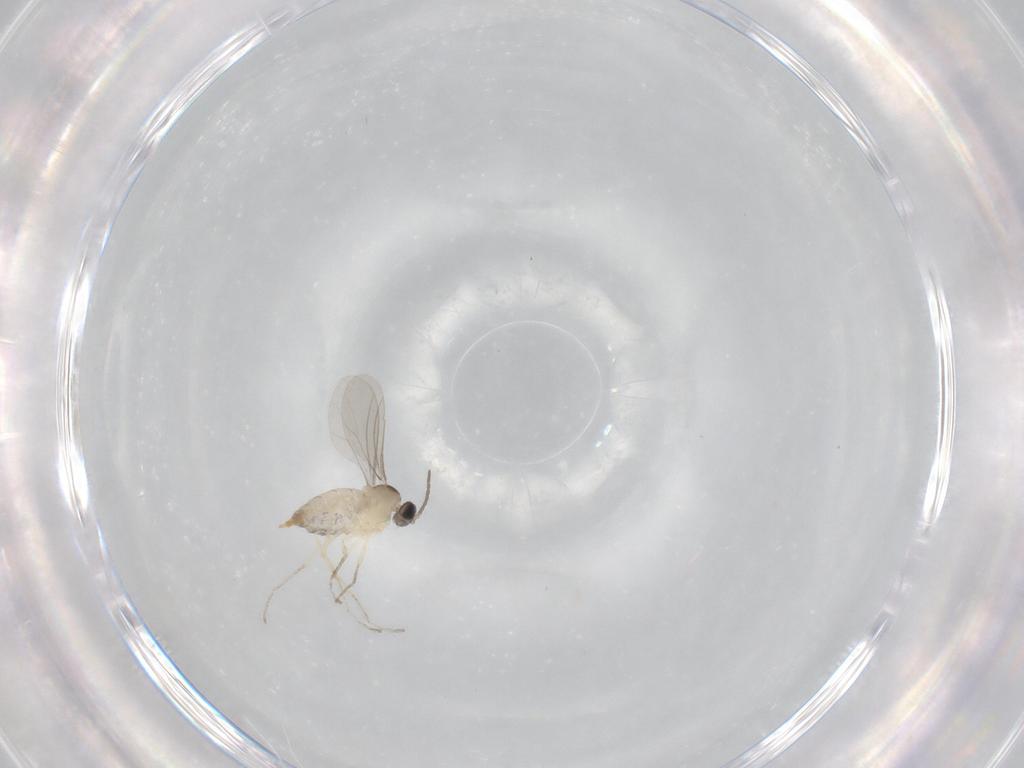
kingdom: Animalia
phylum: Arthropoda
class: Insecta
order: Diptera
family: Cecidomyiidae
